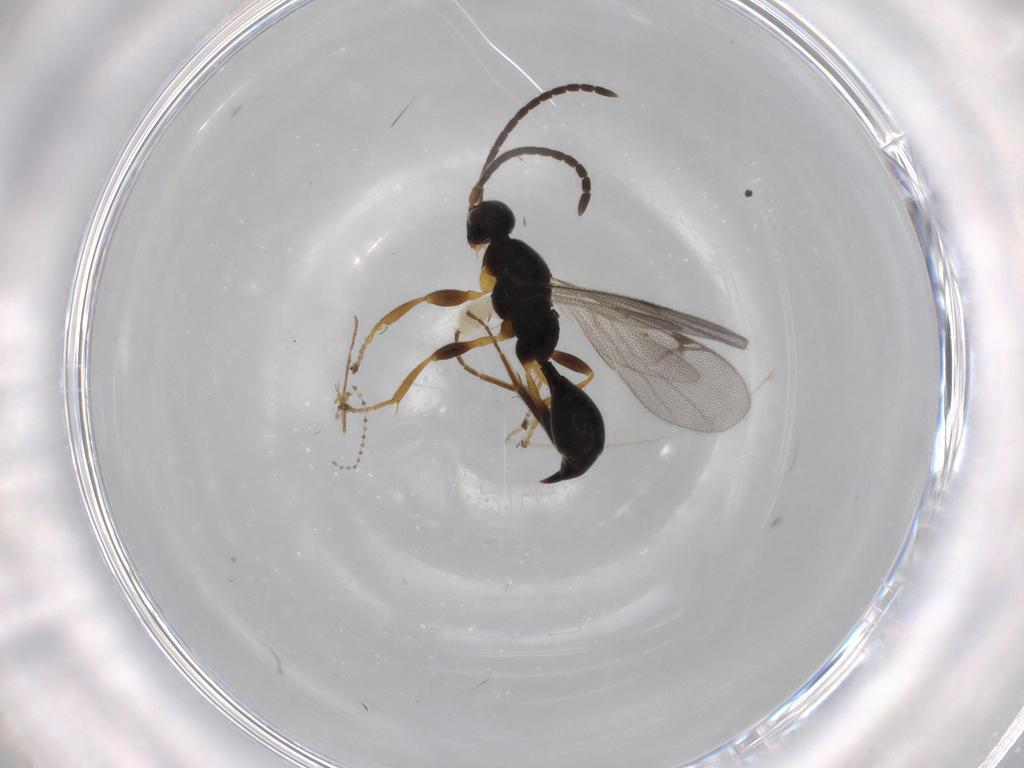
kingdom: Animalia
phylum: Arthropoda
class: Insecta
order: Hymenoptera
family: Proctotrupidae
